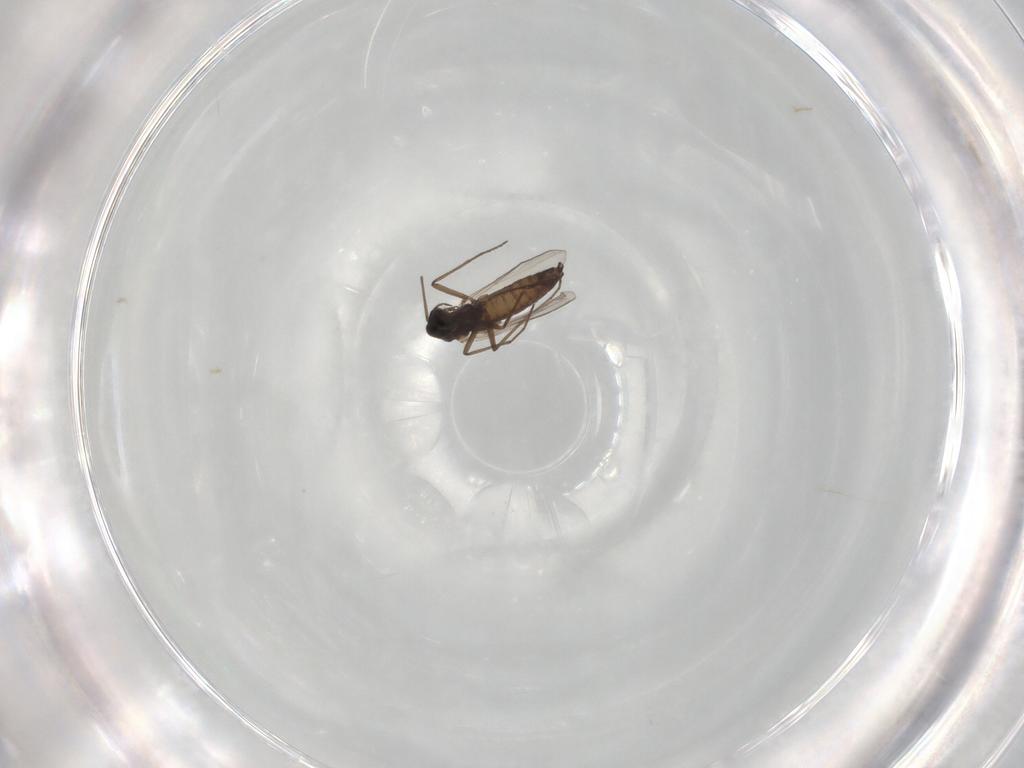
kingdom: Animalia
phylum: Arthropoda
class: Insecta
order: Diptera
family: Chironomidae
